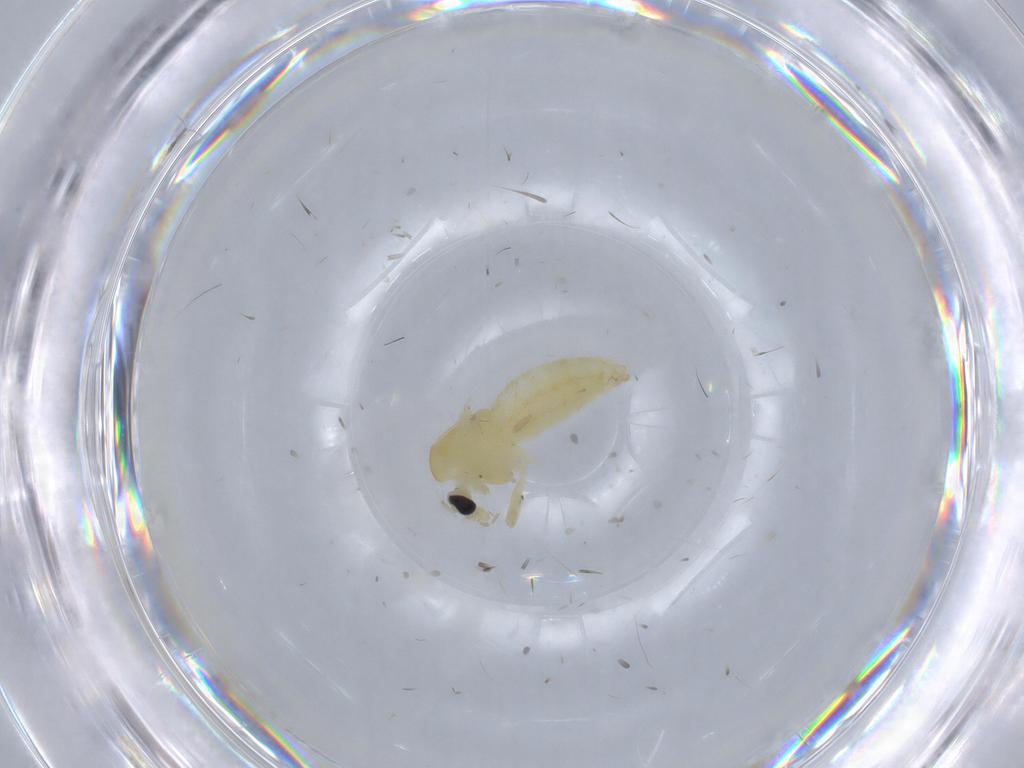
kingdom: Animalia
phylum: Arthropoda
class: Insecta
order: Diptera
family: Chironomidae
